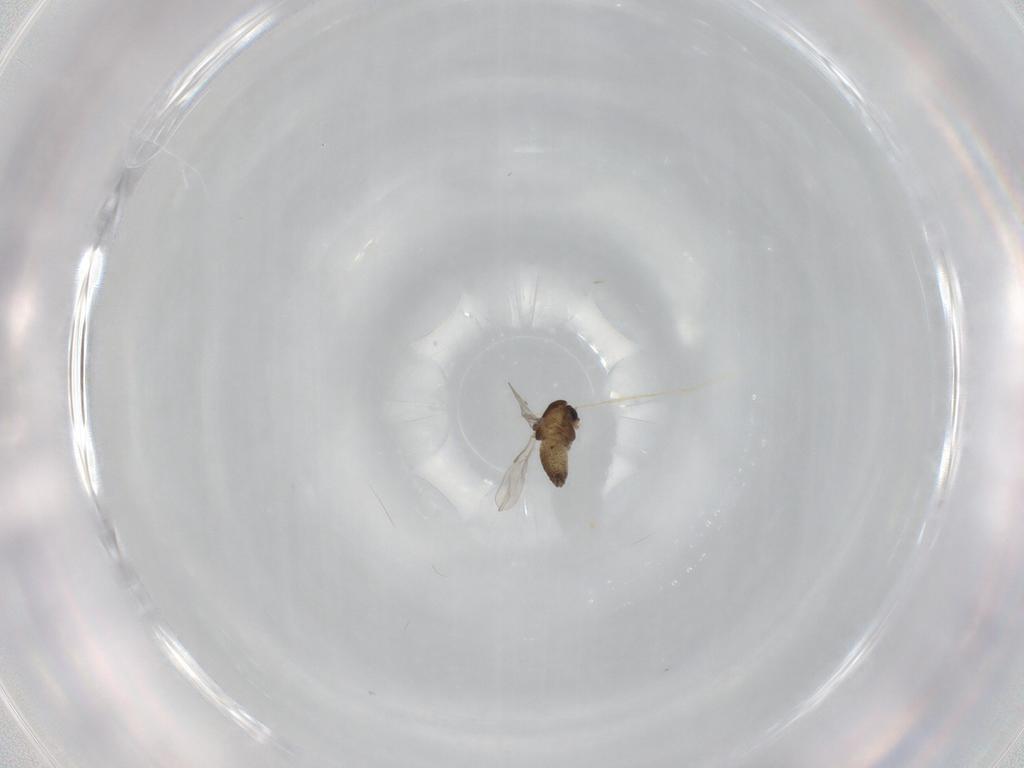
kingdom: Animalia
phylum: Arthropoda
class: Insecta
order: Diptera
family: Chironomidae
